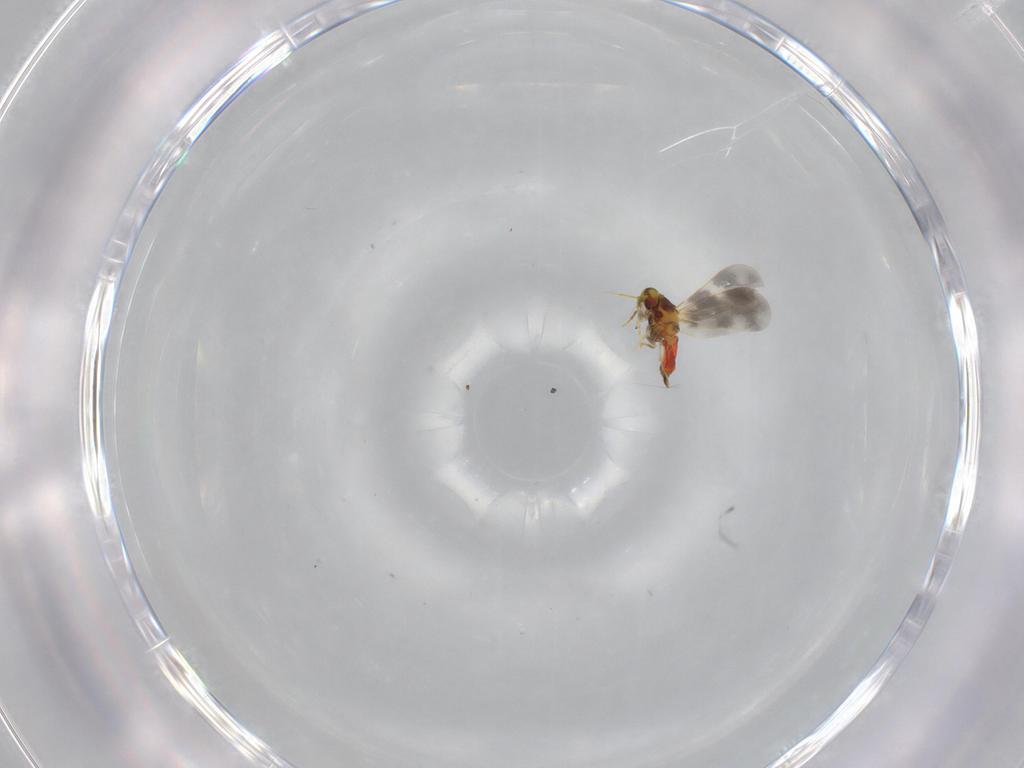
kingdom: Animalia
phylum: Arthropoda
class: Insecta
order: Hemiptera
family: Aleyrodidae
